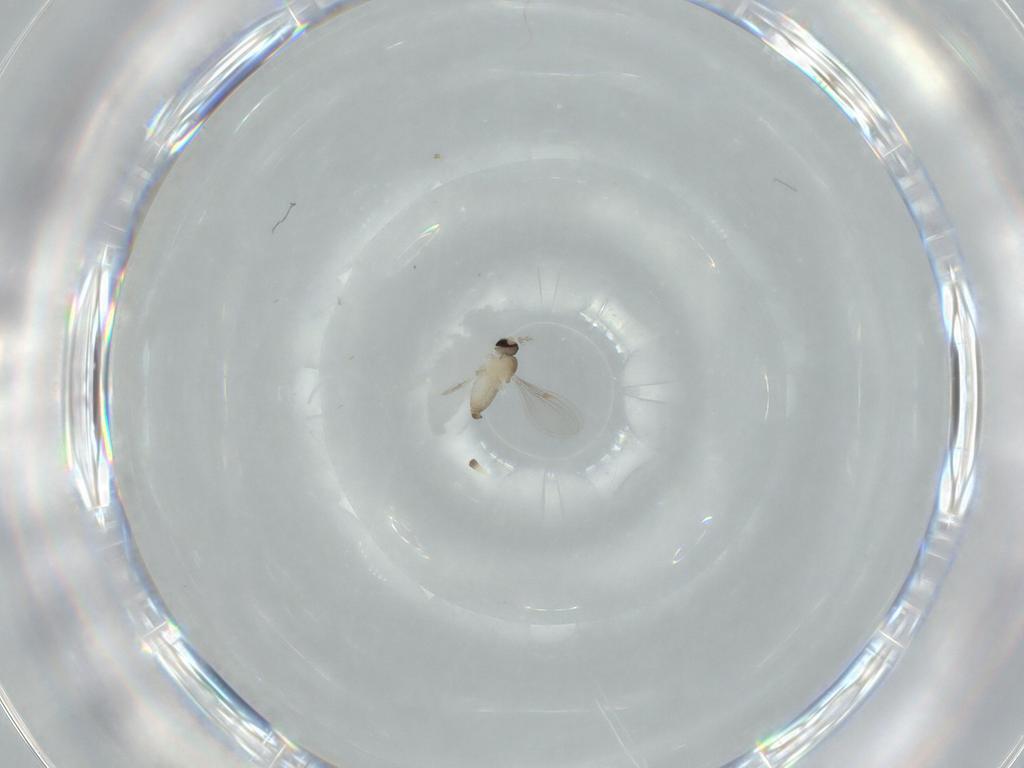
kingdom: Animalia
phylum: Arthropoda
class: Insecta
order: Diptera
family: Cecidomyiidae
